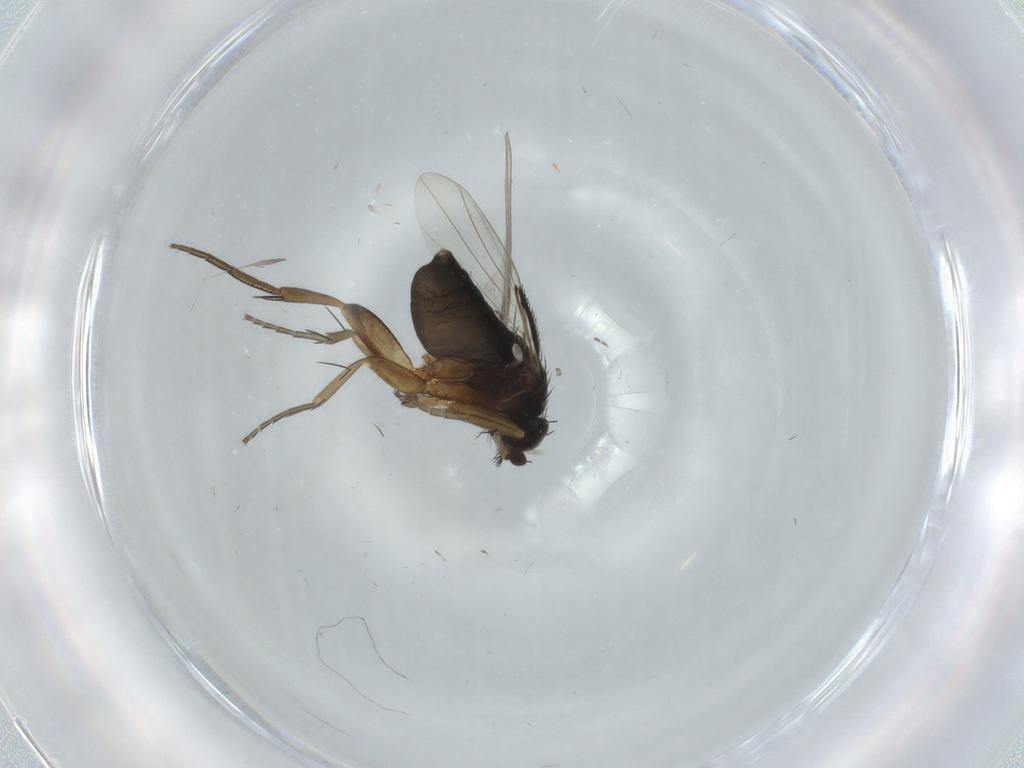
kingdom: Animalia
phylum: Arthropoda
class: Insecta
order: Diptera
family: Phoridae
